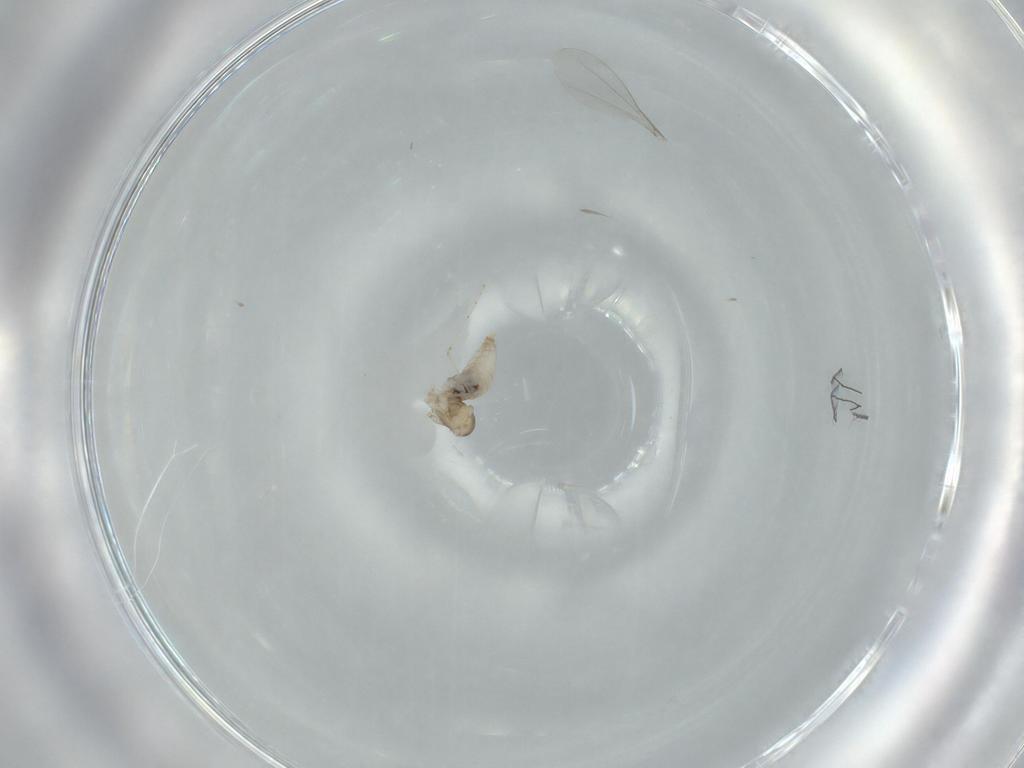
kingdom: Animalia
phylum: Arthropoda
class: Insecta
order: Diptera
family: Cecidomyiidae
